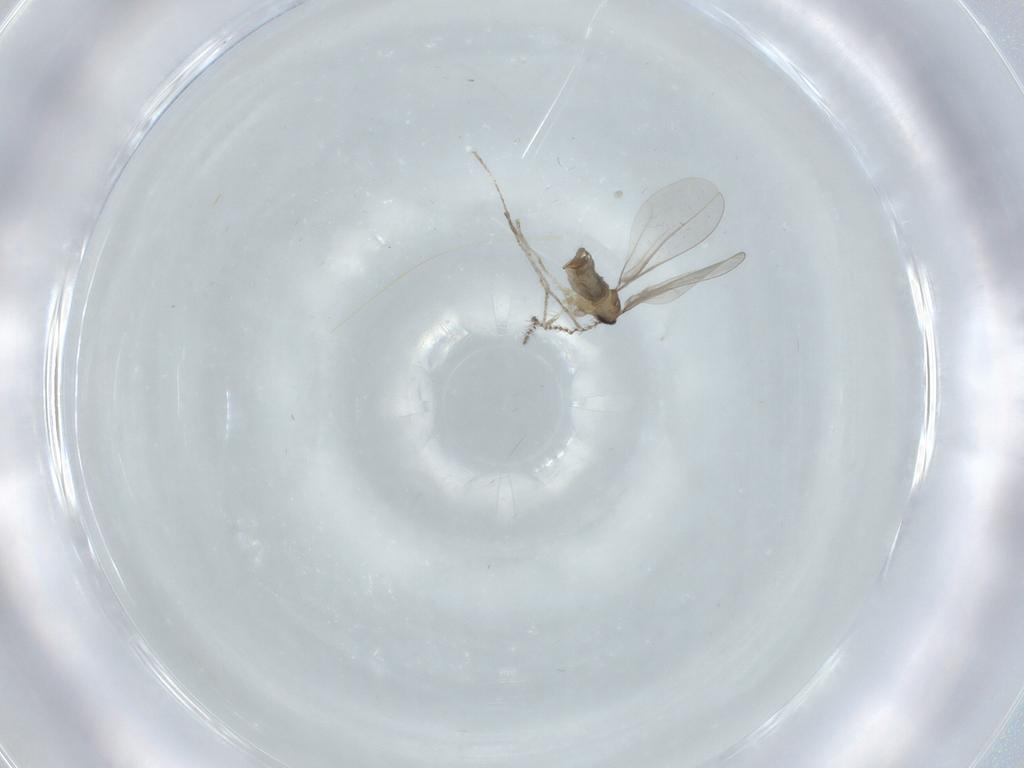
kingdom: Animalia
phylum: Arthropoda
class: Insecta
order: Diptera
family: Cecidomyiidae
